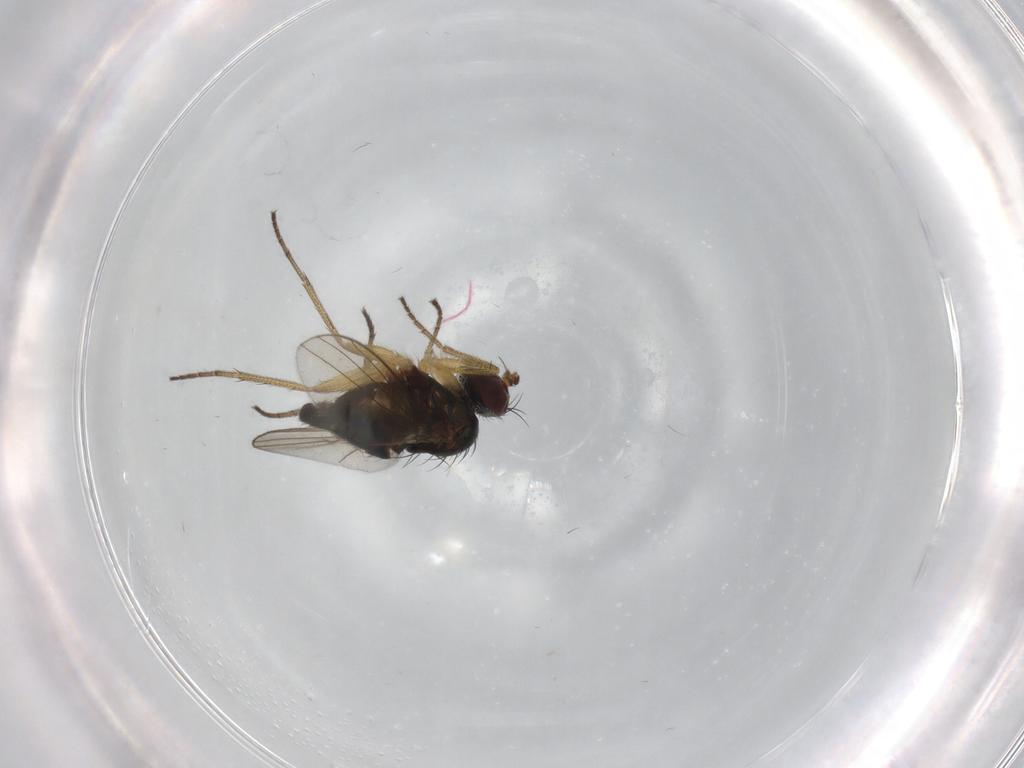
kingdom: Animalia
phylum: Arthropoda
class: Insecta
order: Diptera
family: Dolichopodidae
